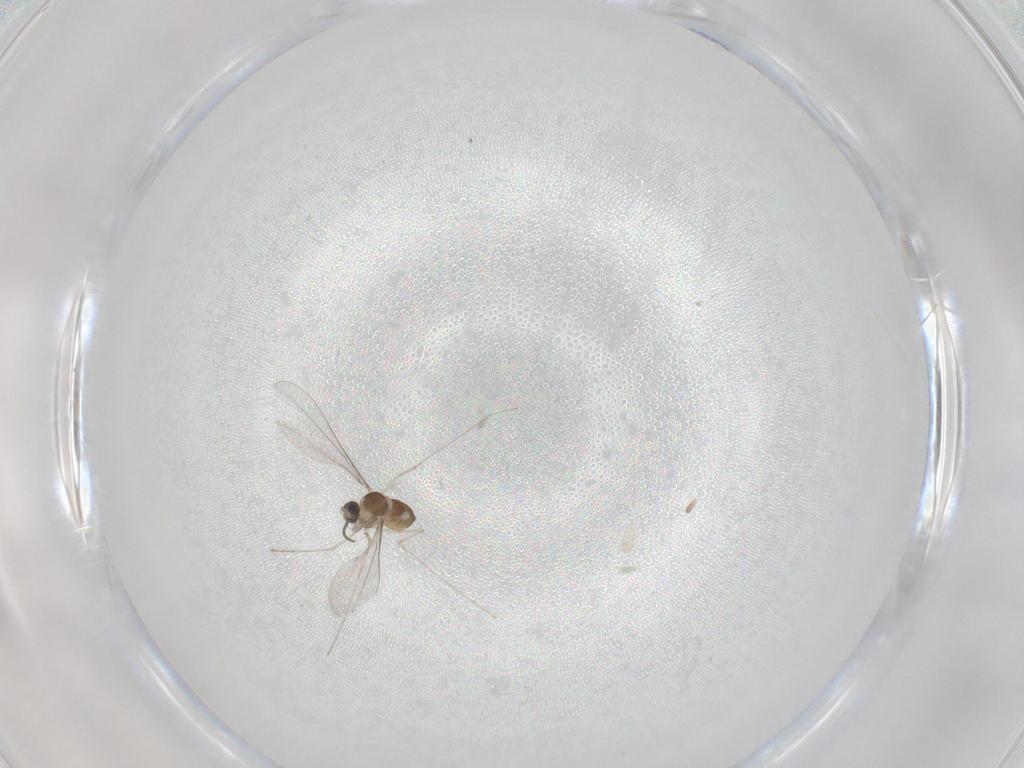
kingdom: Animalia
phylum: Arthropoda
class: Insecta
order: Diptera
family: Cecidomyiidae
